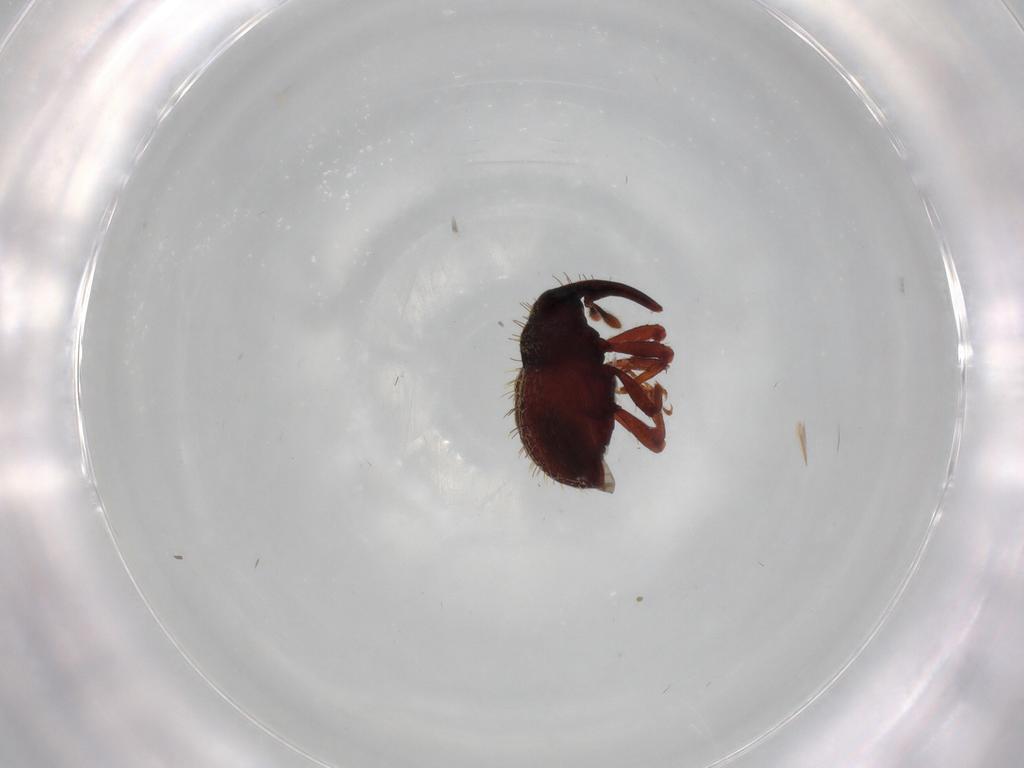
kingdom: Animalia
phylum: Arthropoda
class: Insecta
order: Coleoptera
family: Curculionidae
